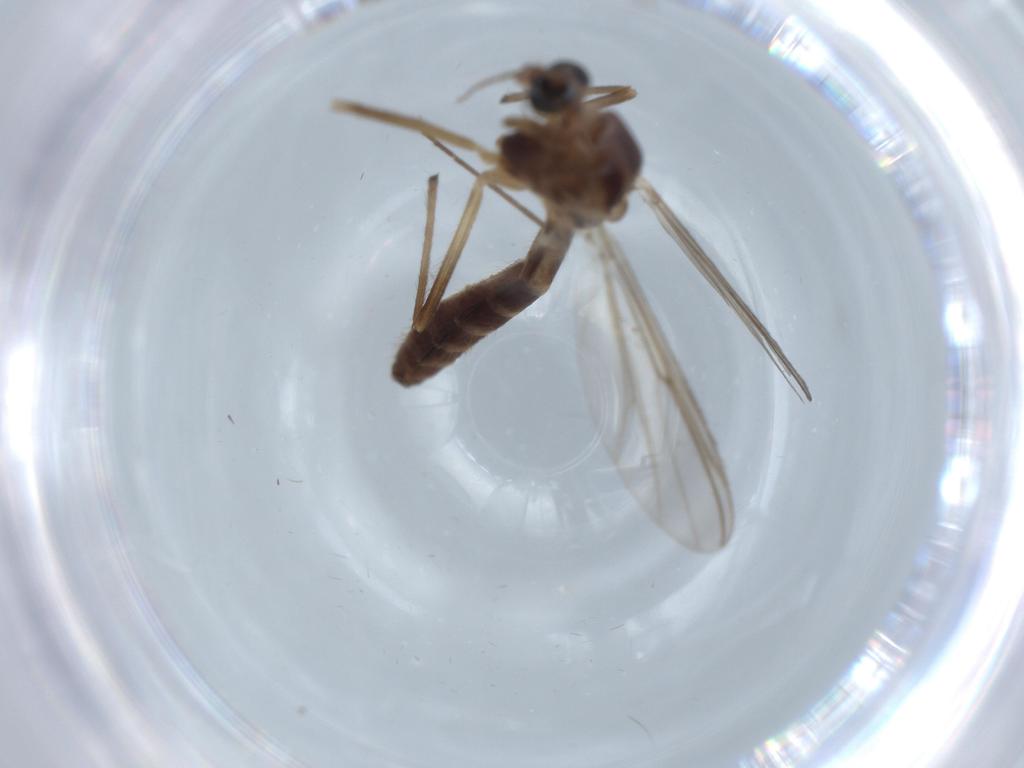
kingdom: Animalia
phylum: Arthropoda
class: Insecta
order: Diptera
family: Chironomidae
